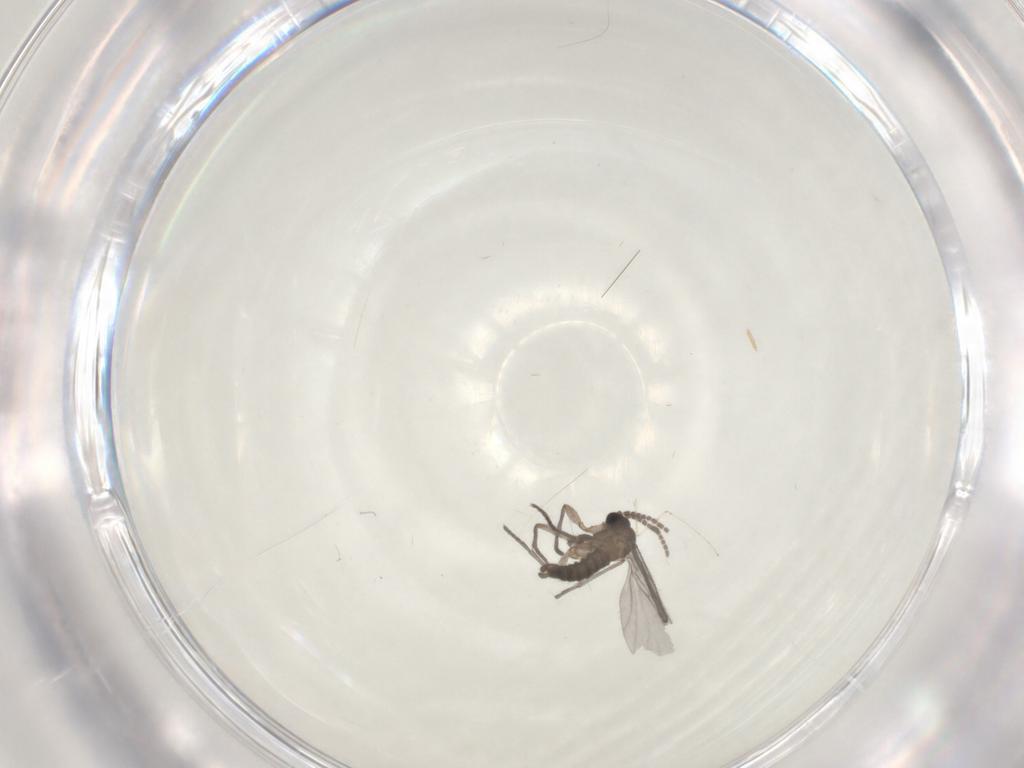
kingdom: Animalia
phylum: Arthropoda
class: Insecta
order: Diptera
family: Sciaridae
